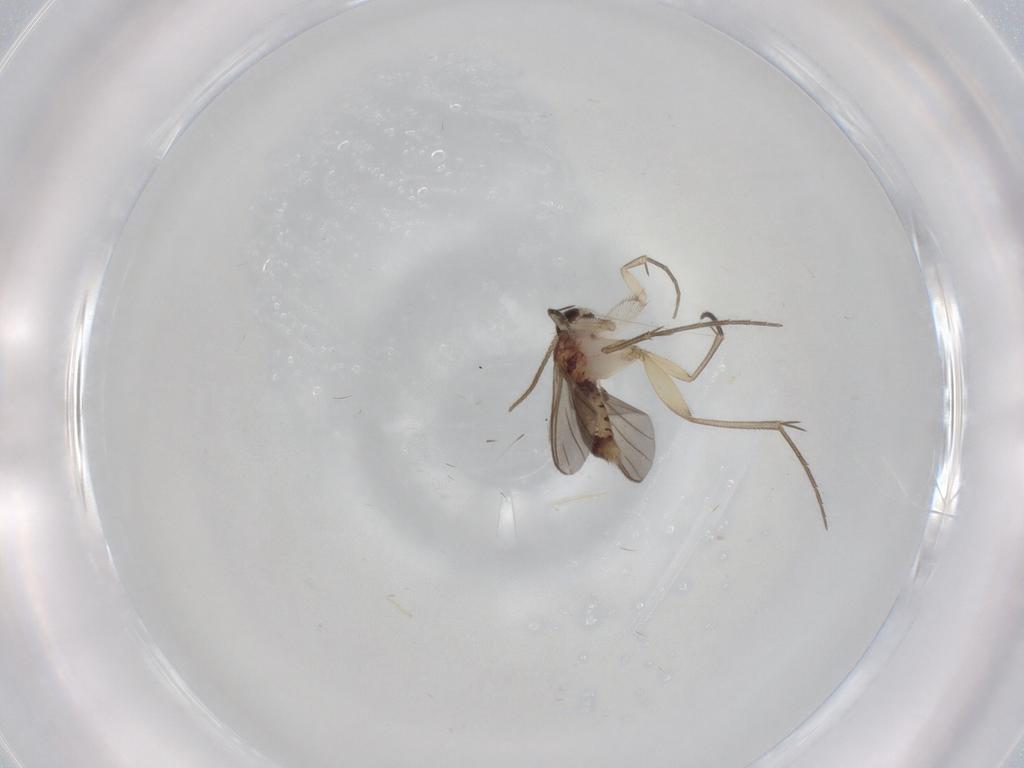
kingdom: Animalia
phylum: Arthropoda
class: Insecta
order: Diptera
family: Mycetophilidae
